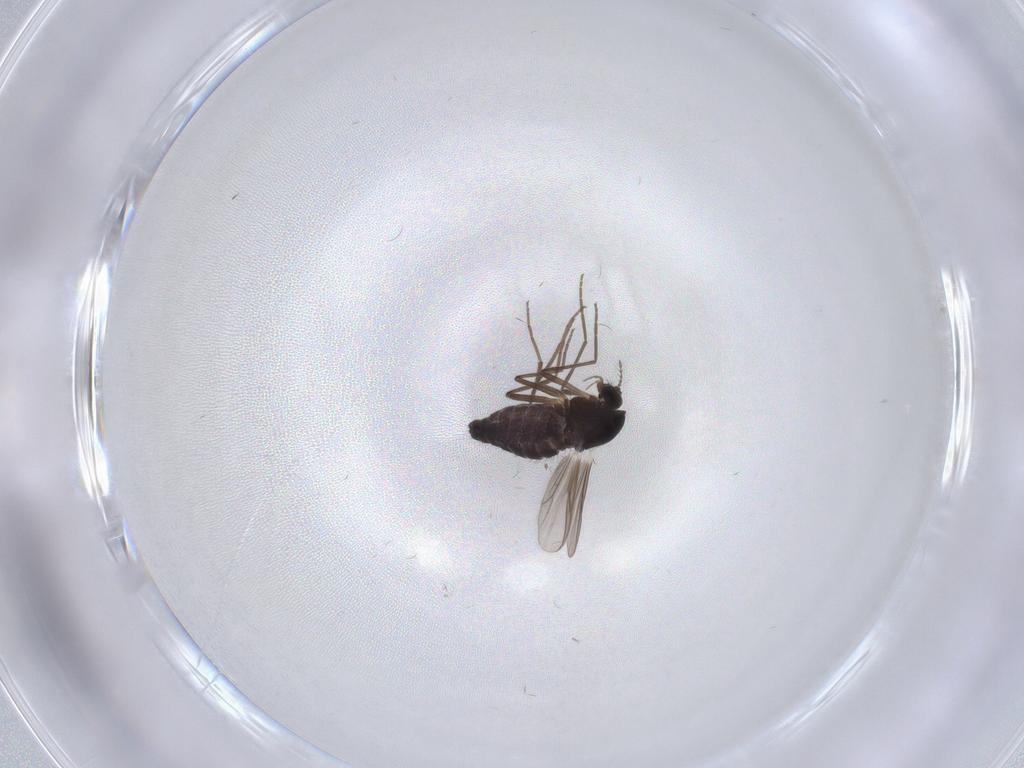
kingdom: Animalia
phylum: Arthropoda
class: Insecta
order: Diptera
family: Chironomidae
